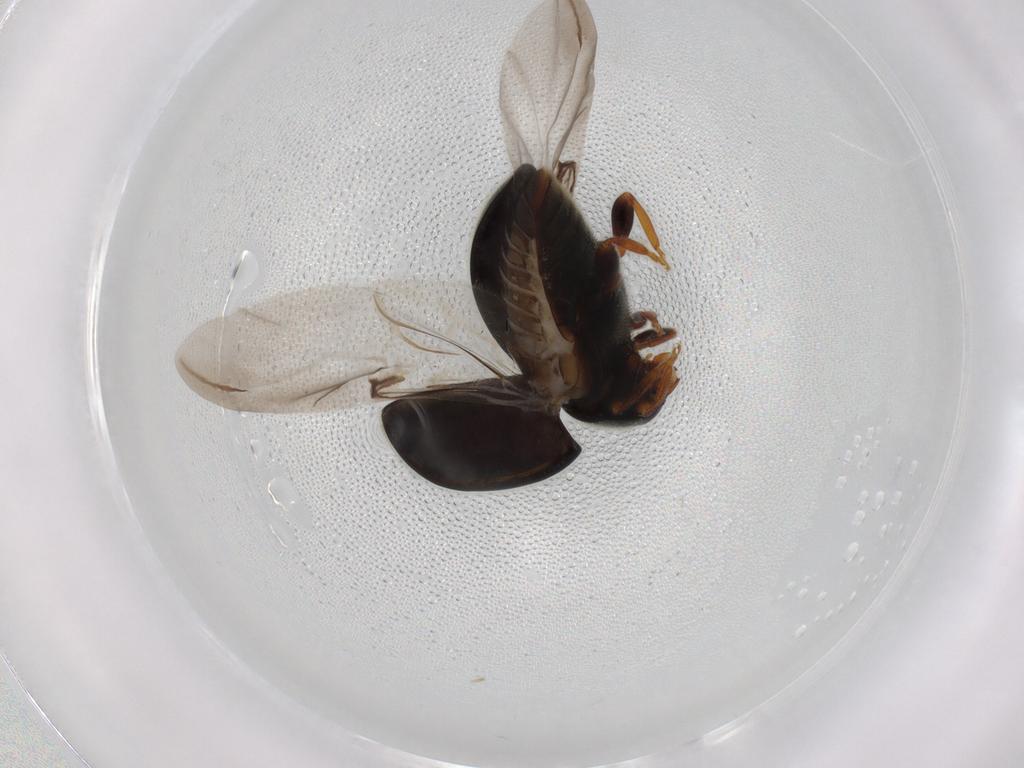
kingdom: Animalia
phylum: Arthropoda
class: Insecta
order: Coleoptera
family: Coccinellidae
